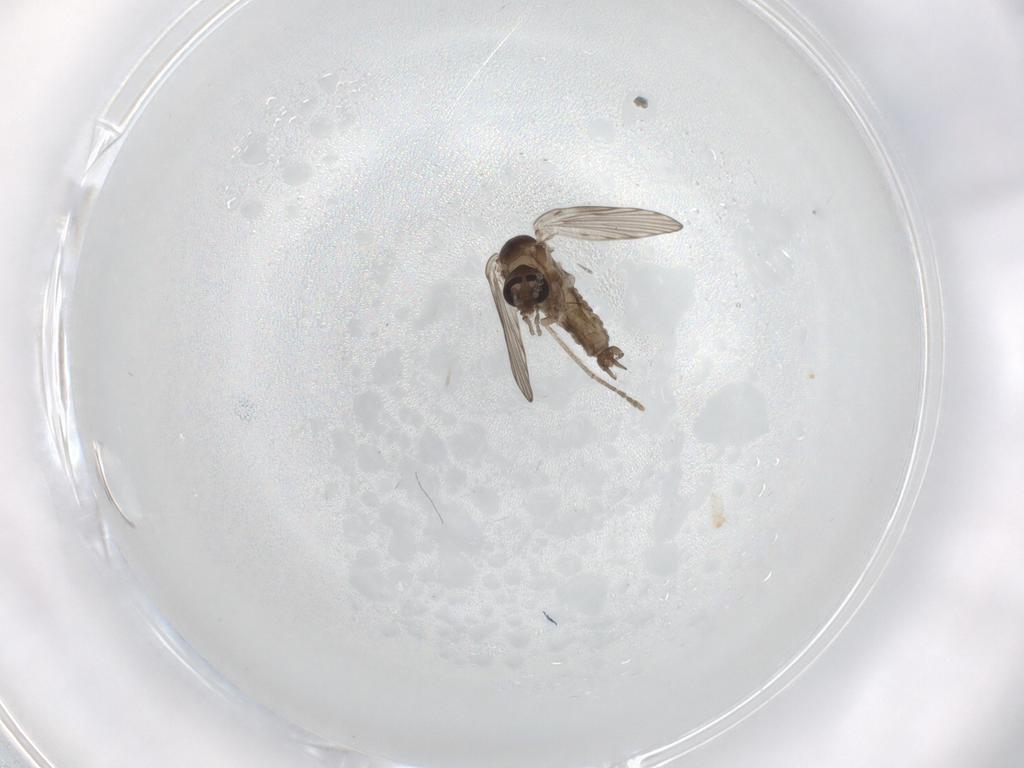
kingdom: Animalia
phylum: Arthropoda
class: Insecta
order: Diptera
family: Psychodidae
